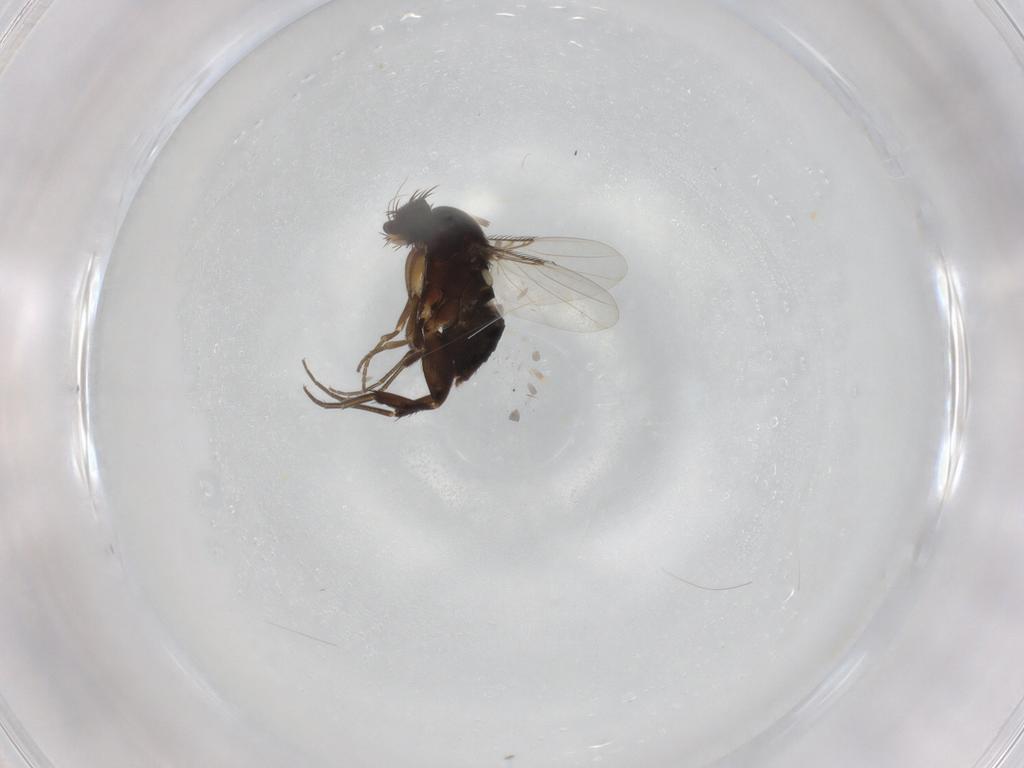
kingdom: Animalia
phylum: Arthropoda
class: Insecta
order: Diptera
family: Phoridae
